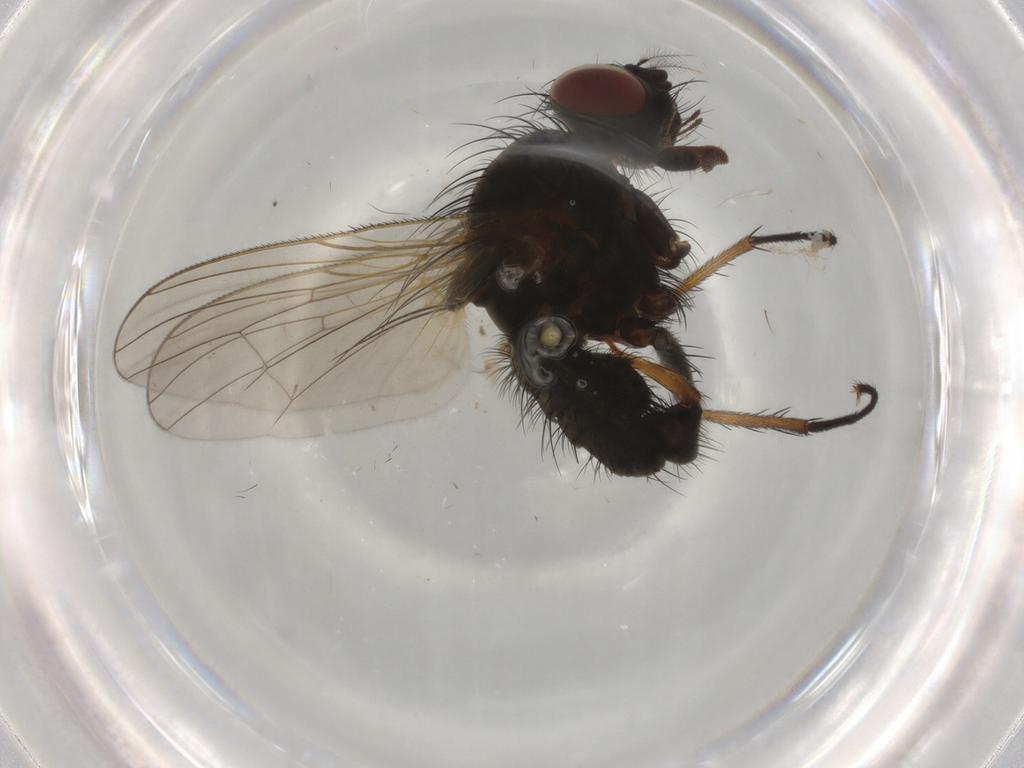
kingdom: Animalia
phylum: Arthropoda
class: Insecta
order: Diptera
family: Anthomyiidae
